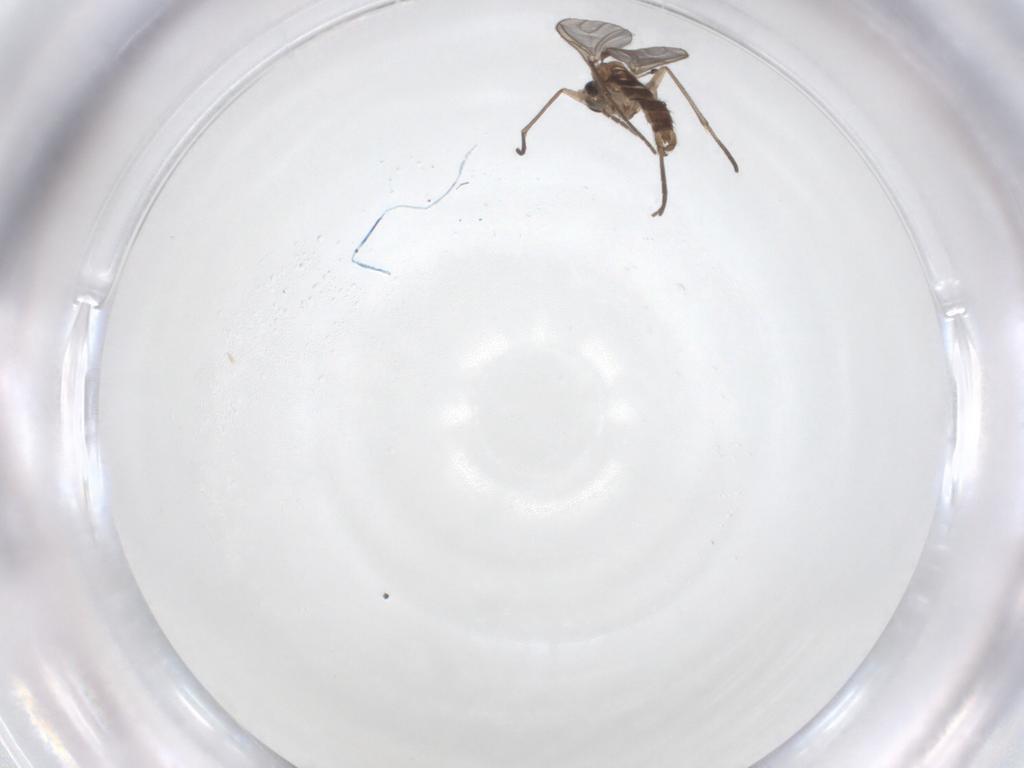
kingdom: Animalia
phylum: Arthropoda
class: Insecta
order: Diptera
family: Sciaridae
